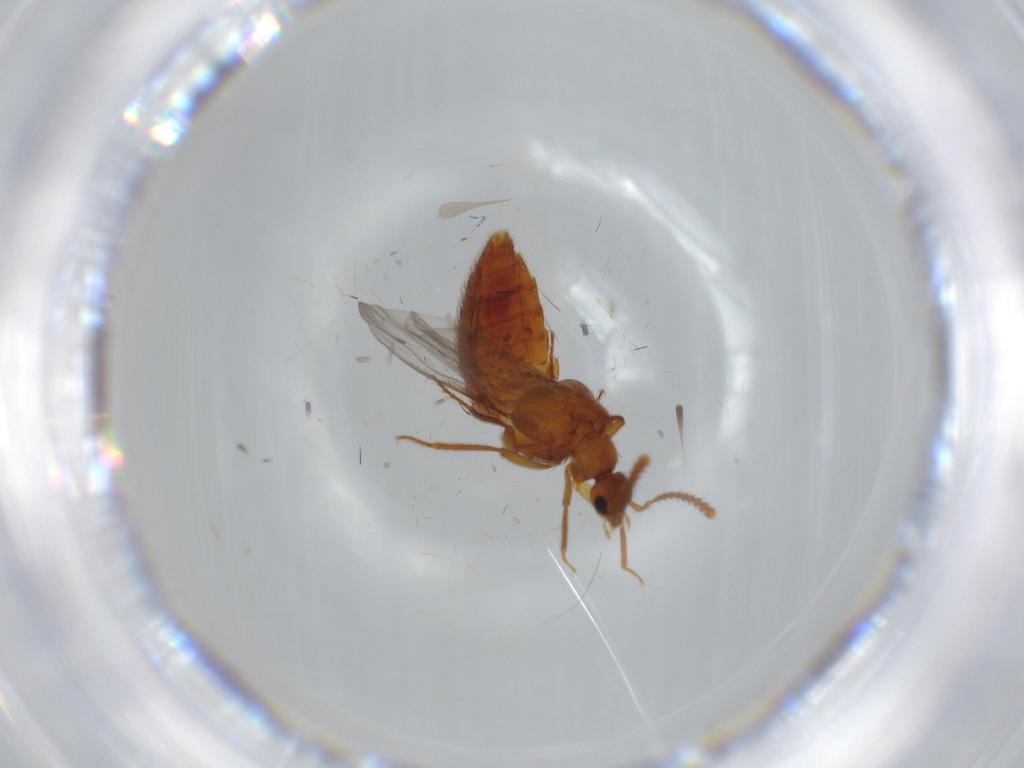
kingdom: Animalia
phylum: Arthropoda
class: Insecta
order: Coleoptera
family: Staphylinidae
